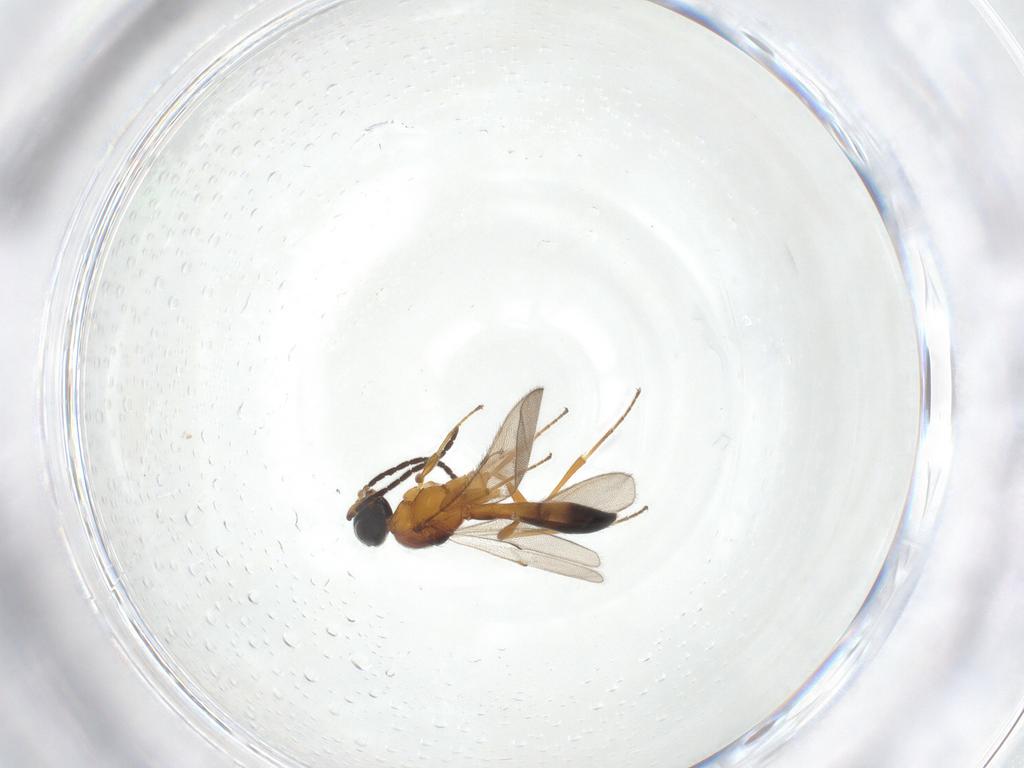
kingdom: Animalia
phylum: Arthropoda
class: Insecta
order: Hymenoptera
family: Scelionidae
